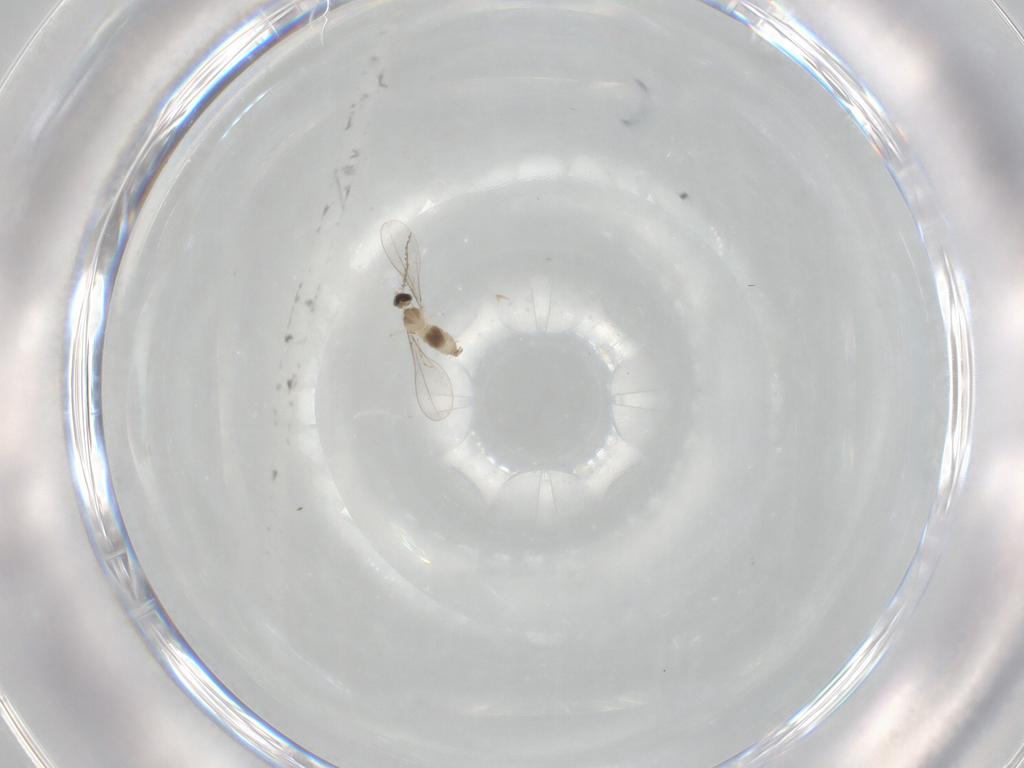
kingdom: Animalia
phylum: Arthropoda
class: Insecta
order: Diptera
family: Cecidomyiidae
